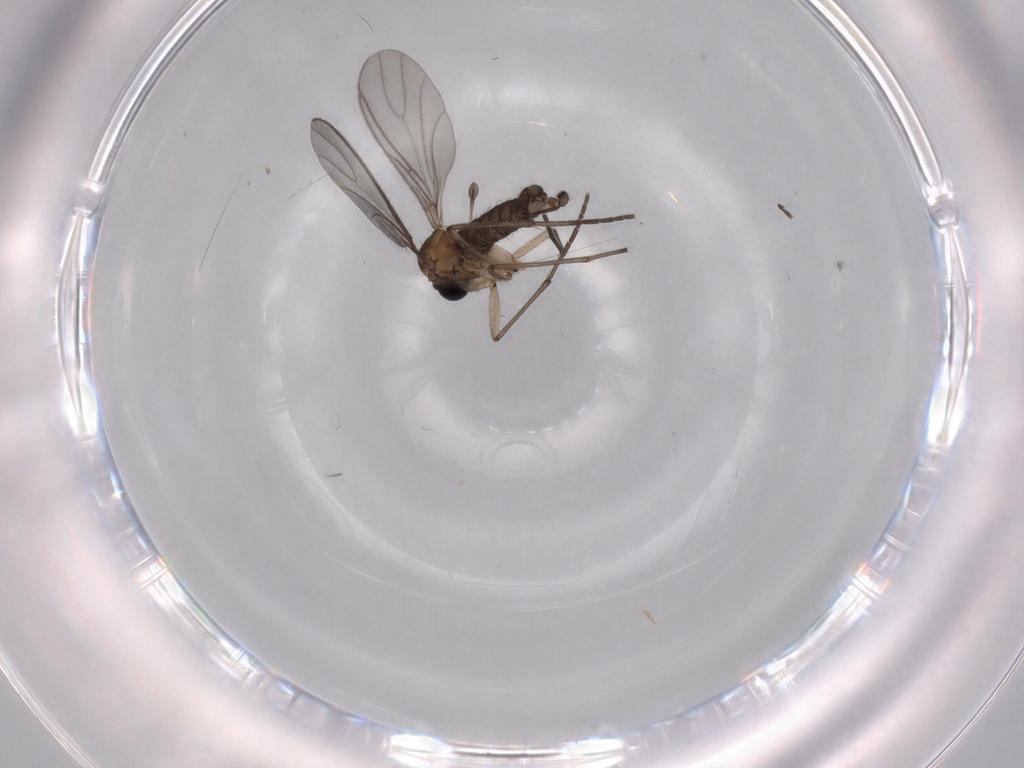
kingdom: Animalia
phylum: Arthropoda
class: Insecta
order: Diptera
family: Sciaridae
